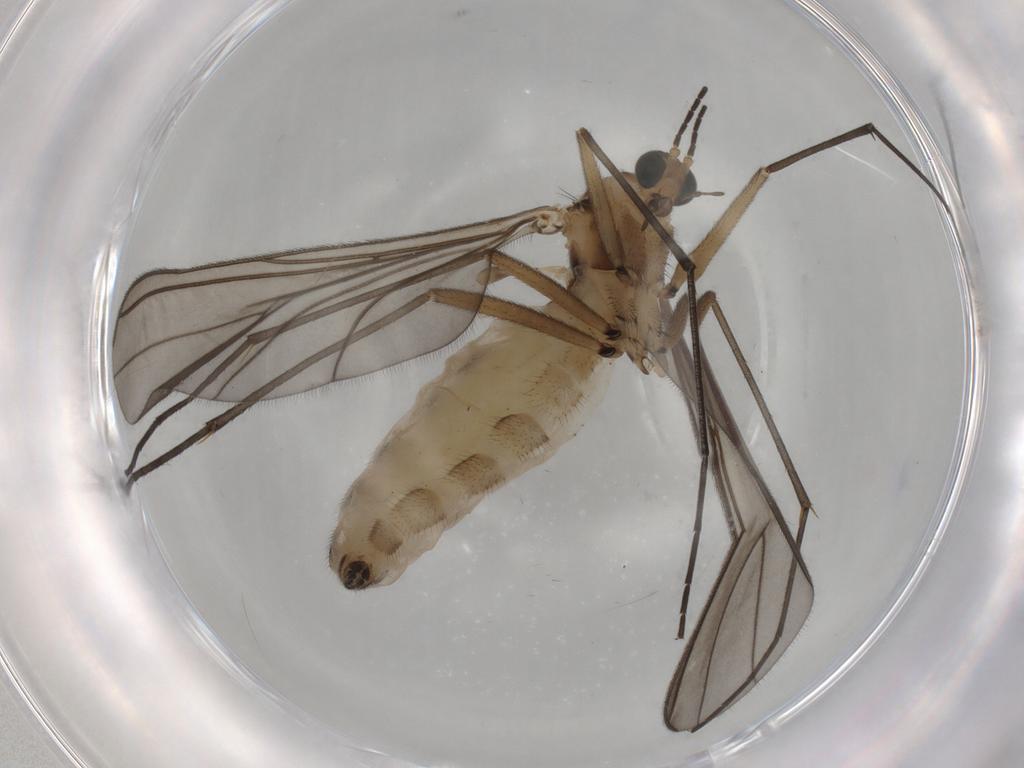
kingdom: Animalia
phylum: Arthropoda
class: Insecta
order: Diptera
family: Sciaridae
